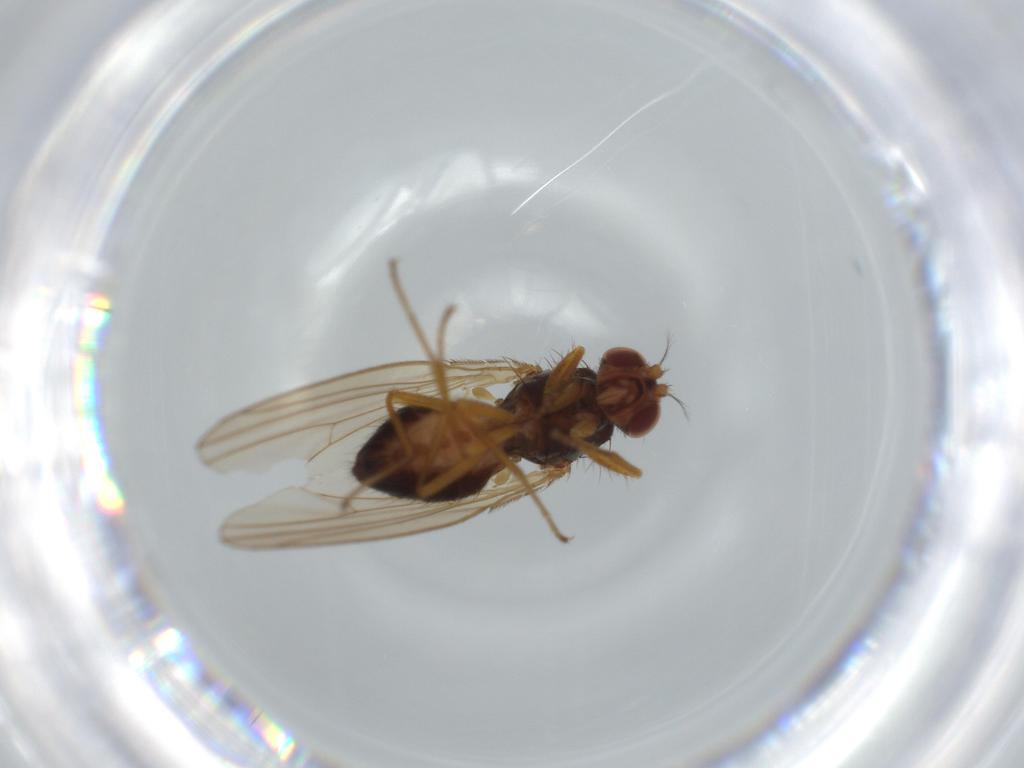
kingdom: Animalia
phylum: Arthropoda
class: Insecta
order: Diptera
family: Drosophilidae
